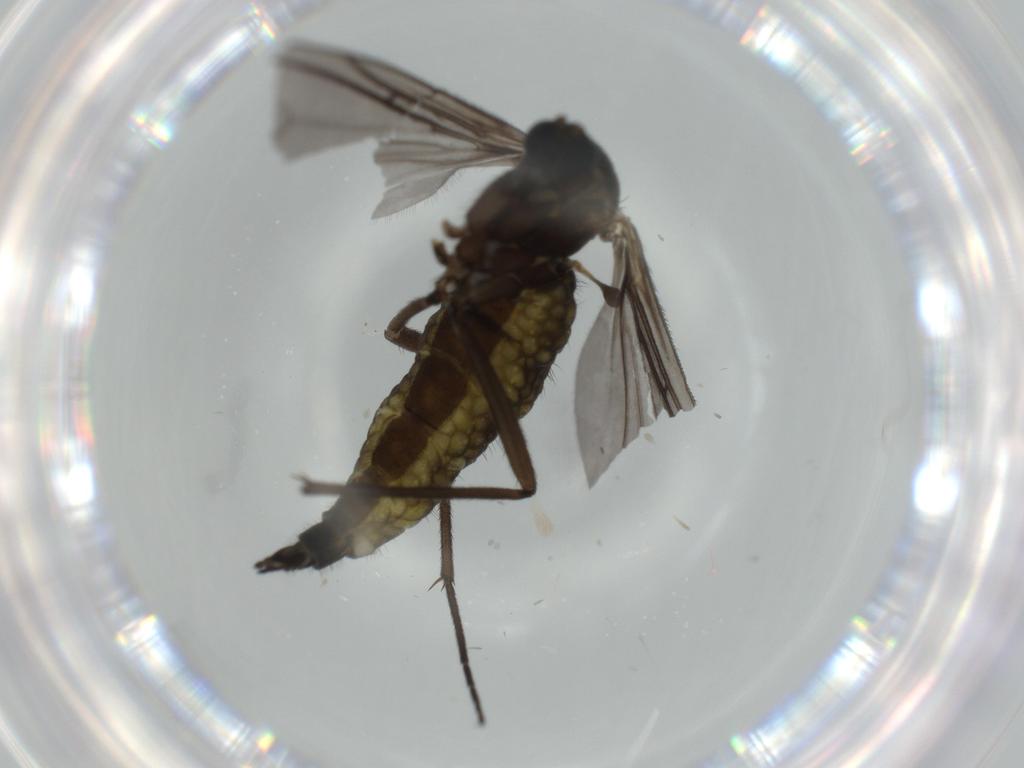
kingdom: Animalia
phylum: Arthropoda
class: Insecta
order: Diptera
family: Sciaridae
